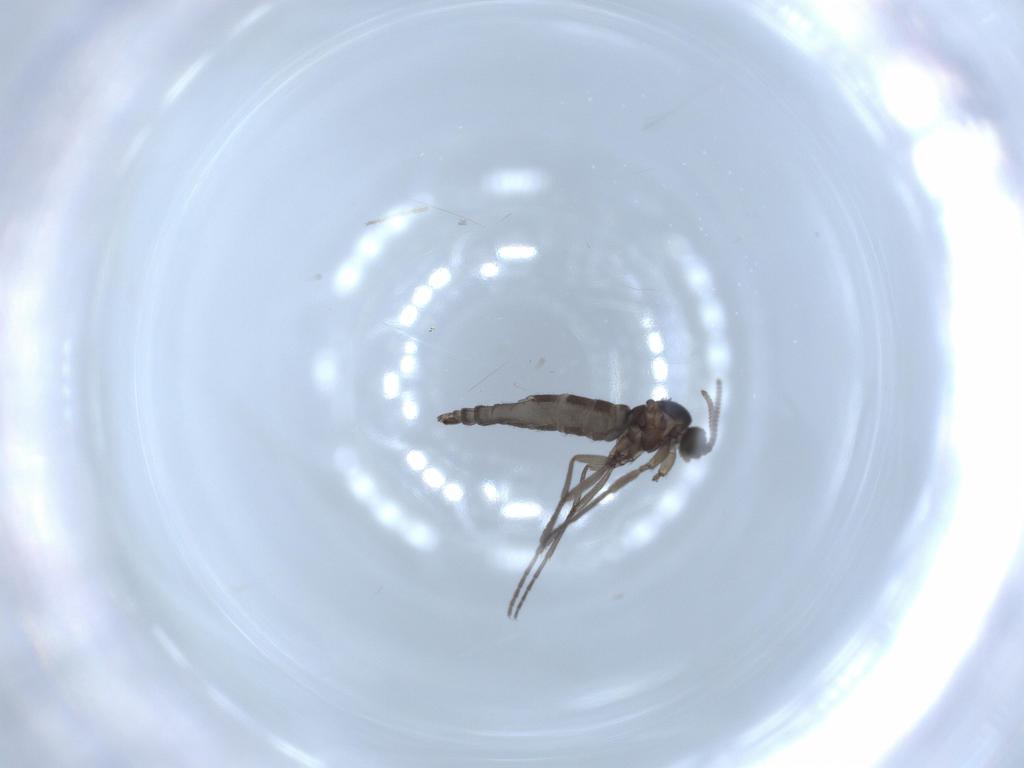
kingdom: Animalia
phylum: Arthropoda
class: Insecta
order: Diptera
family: Sciaridae
